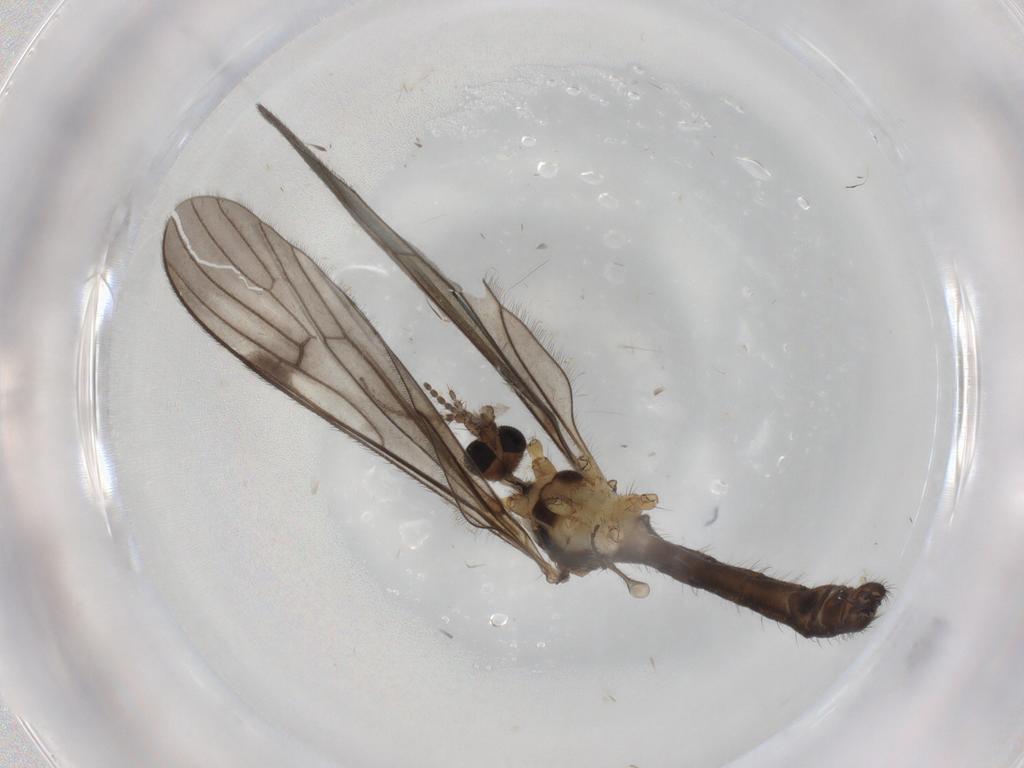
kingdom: Animalia
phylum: Arthropoda
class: Insecta
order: Diptera
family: Limoniidae
